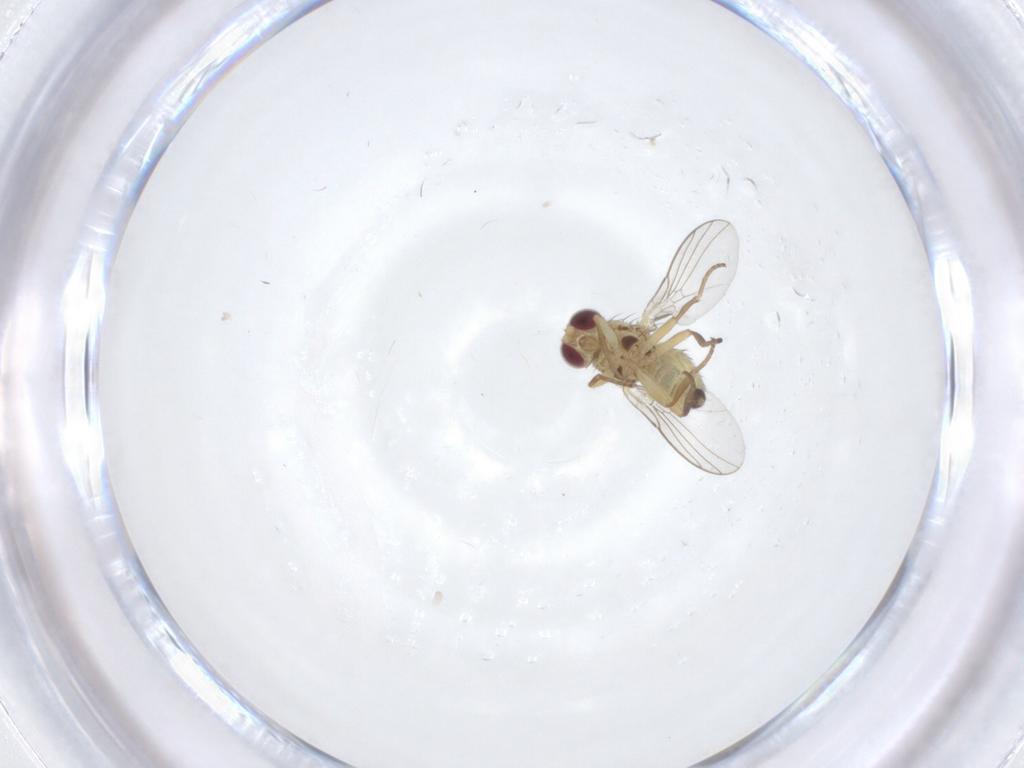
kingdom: Animalia
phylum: Arthropoda
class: Insecta
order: Diptera
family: Agromyzidae
